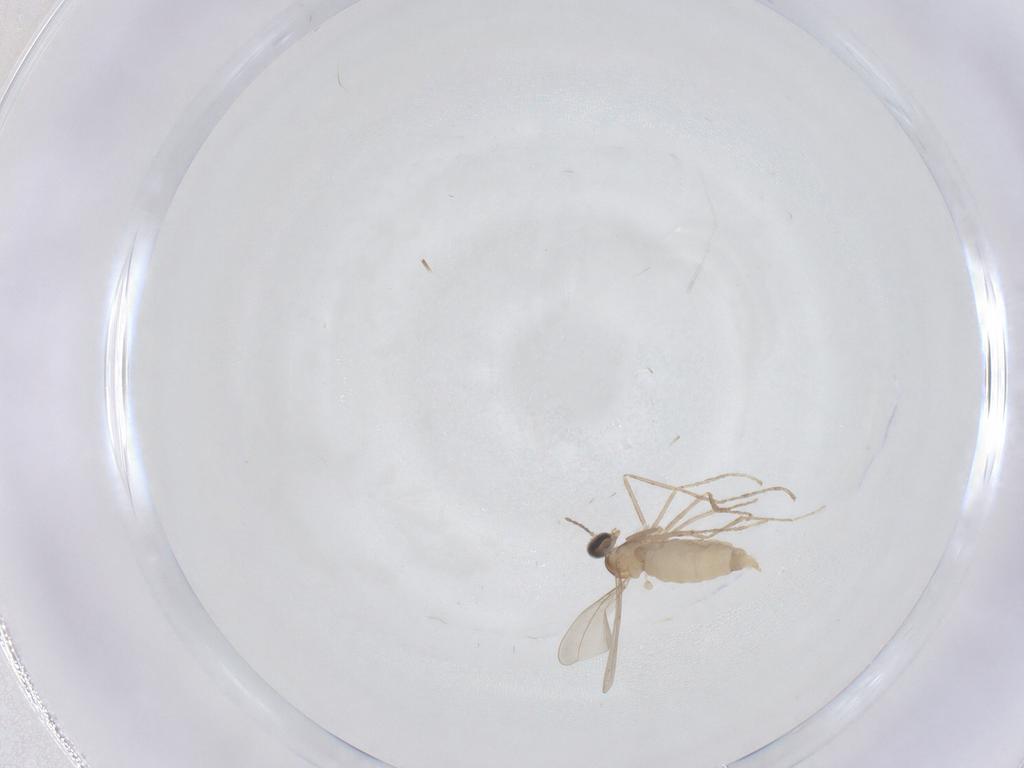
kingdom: Animalia
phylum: Arthropoda
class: Insecta
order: Diptera
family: Cecidomyiidae
